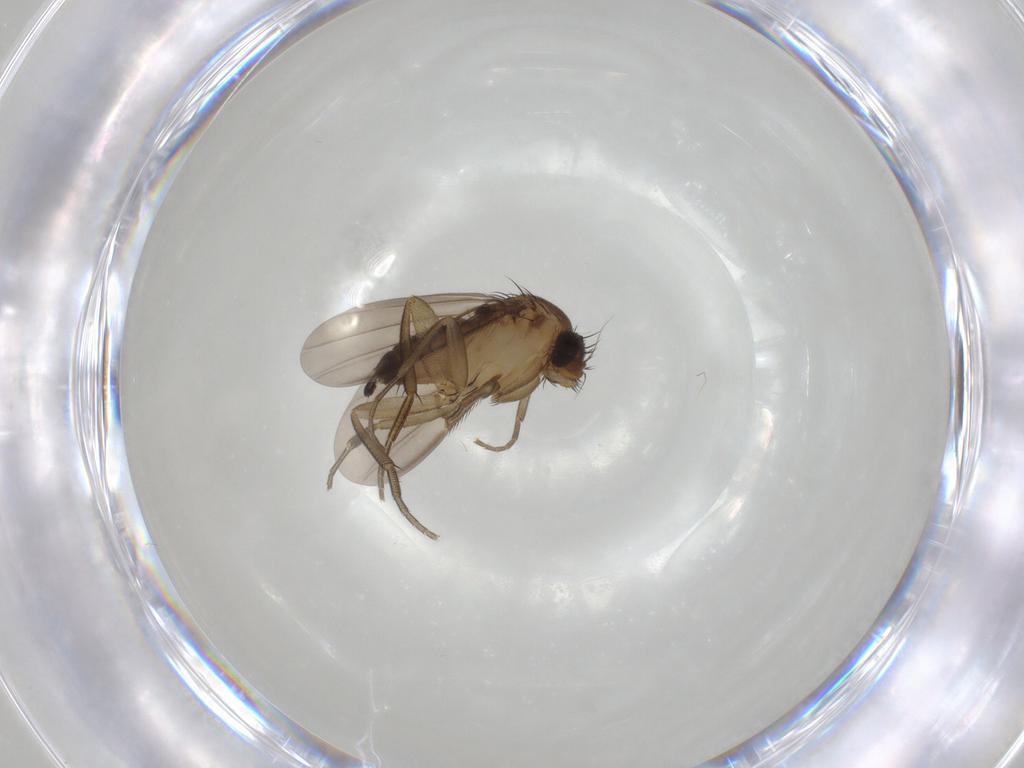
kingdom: Animalia
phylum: Arthropoda
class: Insecta
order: Diptera
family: Phoridae
